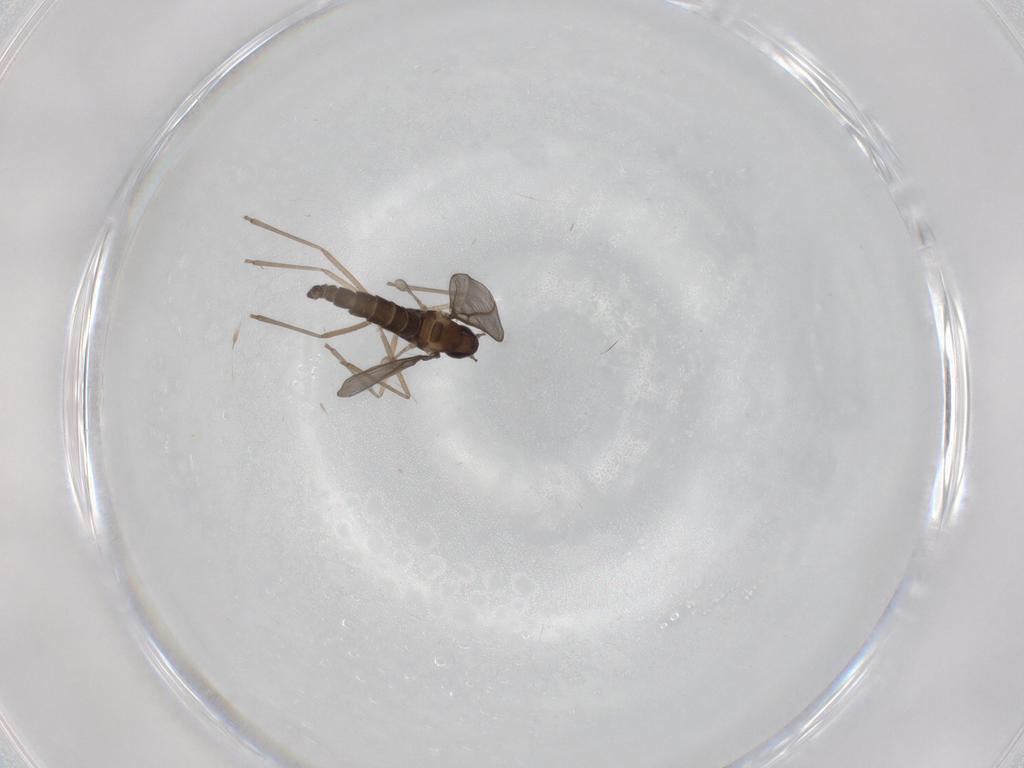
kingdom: Animalia
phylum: Arthropoda
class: Insecta
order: Diptera
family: Cecidomyiidae
